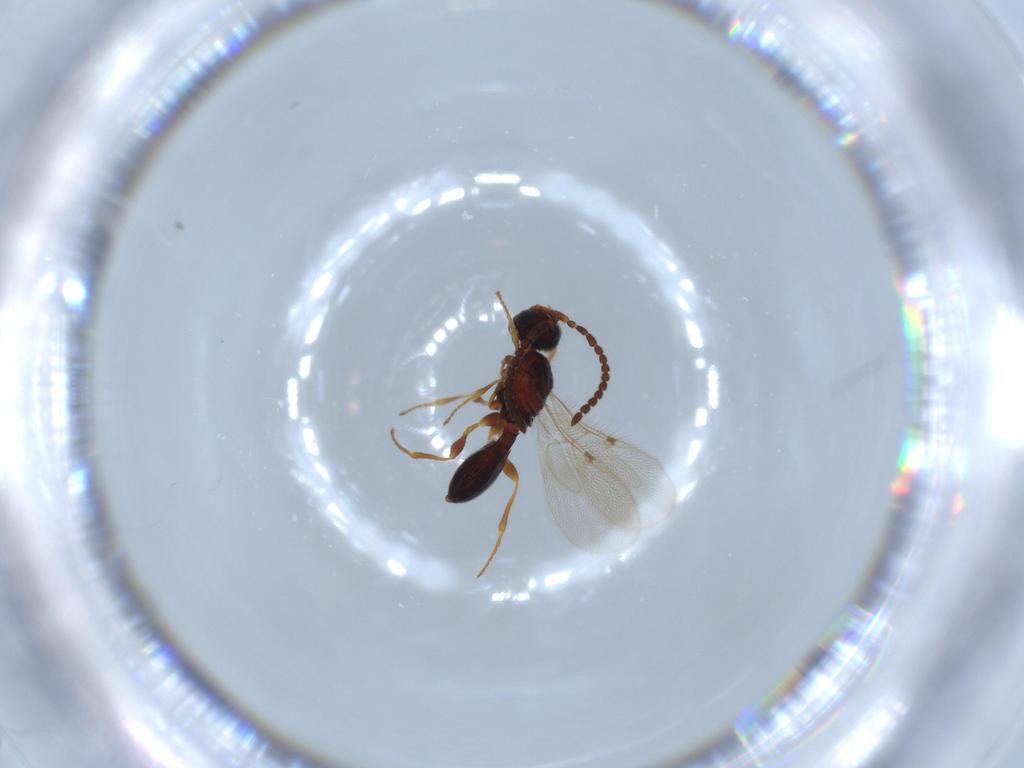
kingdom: Animalia
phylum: Arthropoda
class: Insecta
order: Hymenoptera
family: Diapriidae
